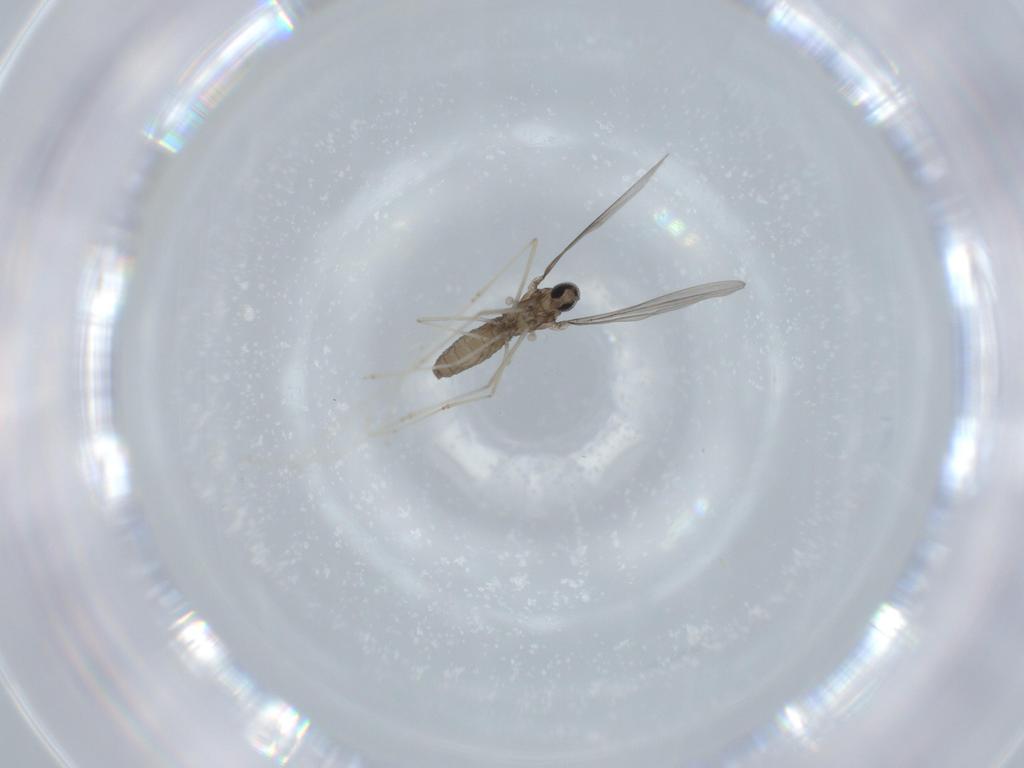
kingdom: Animalia
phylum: Arthropoda
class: Insecta
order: Diptera
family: Cecidomyiidae
